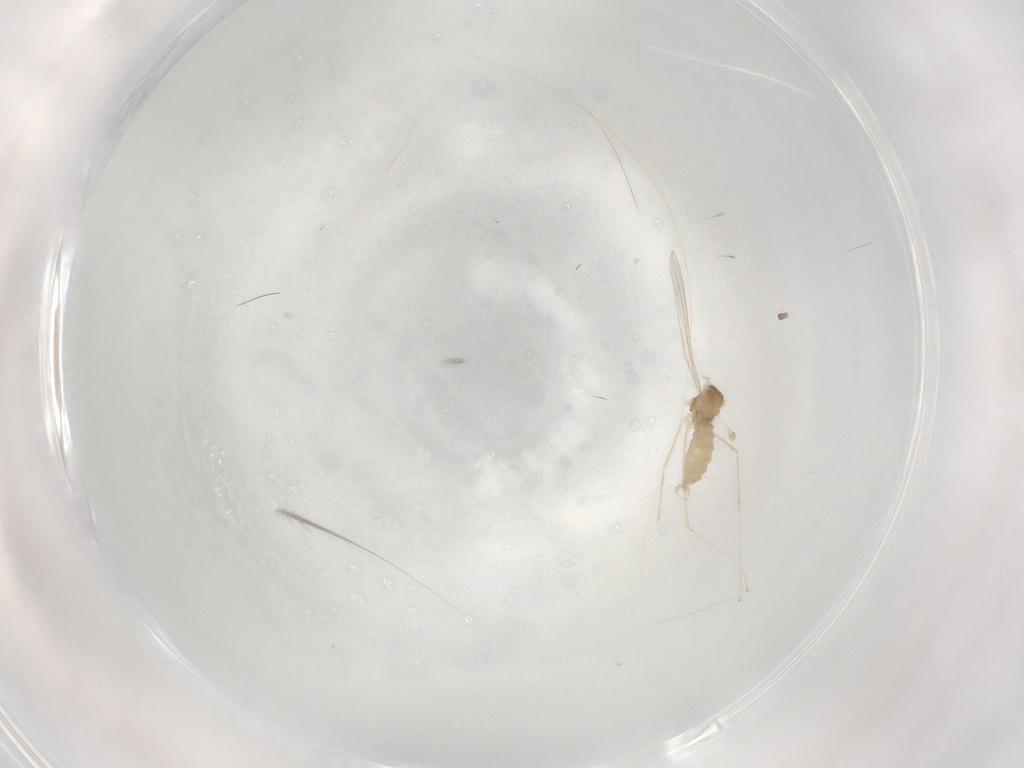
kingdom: Animalia
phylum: Arthropoda
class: Insecta
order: Diptera
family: Cecidomyiidae
